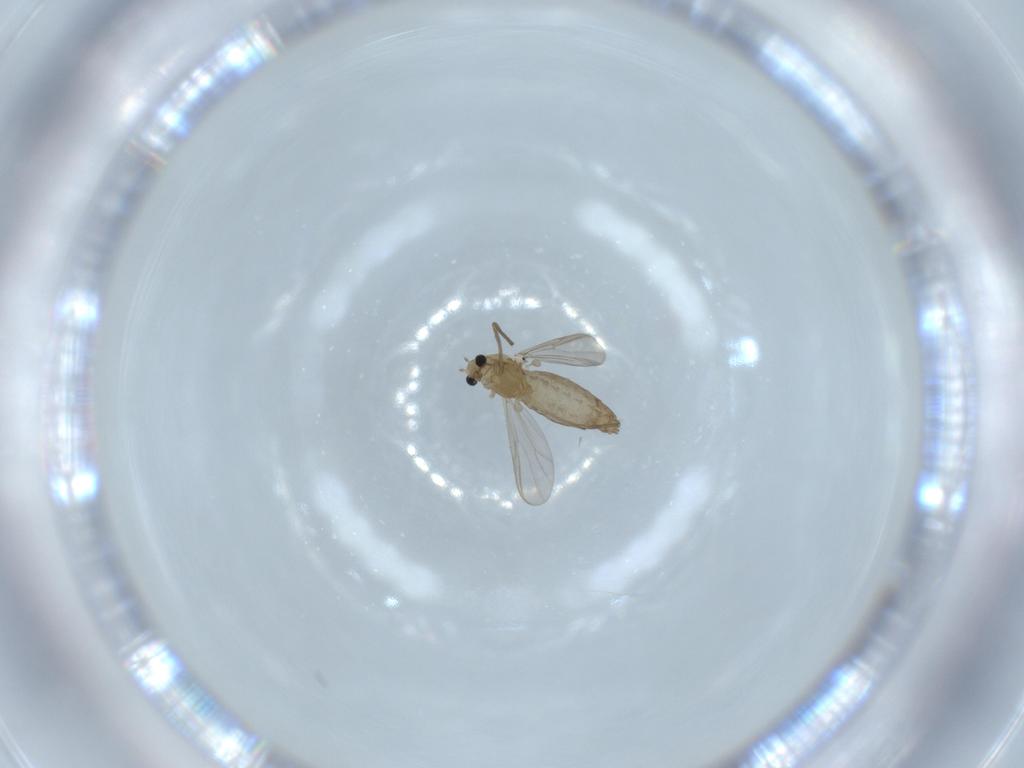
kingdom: Animalia
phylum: Arthropoda
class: Insecta
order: Diptera
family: Chironomidae
